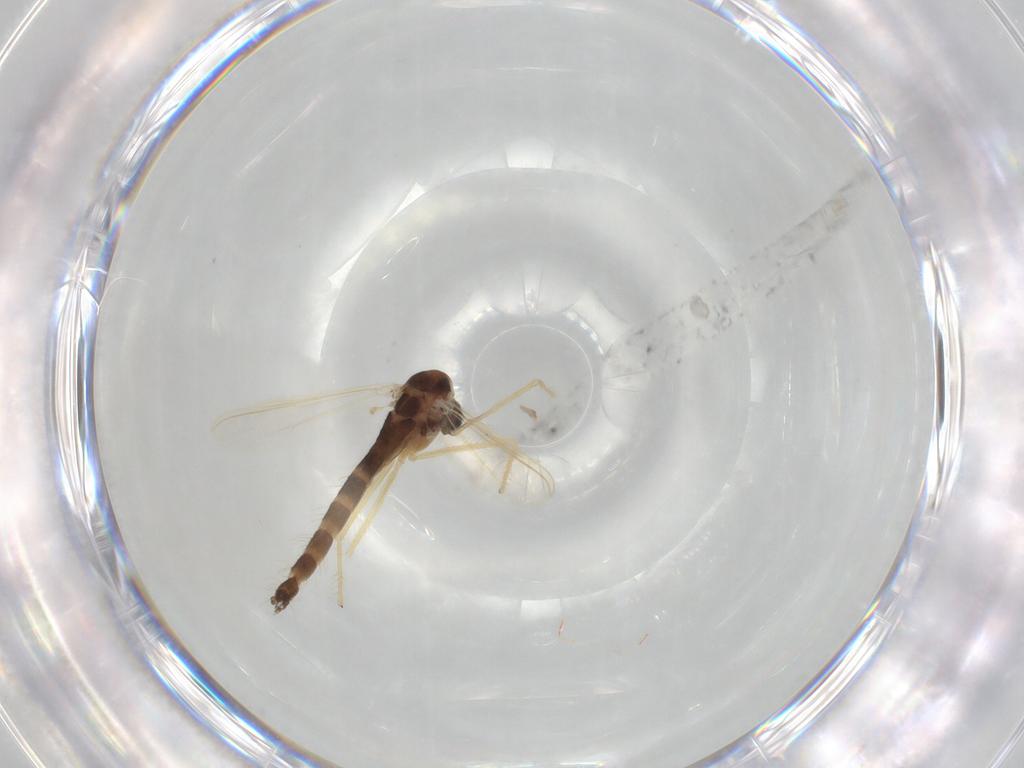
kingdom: Animalia
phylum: Arthropoda
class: Insecta
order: Diptera
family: Chironomidae
